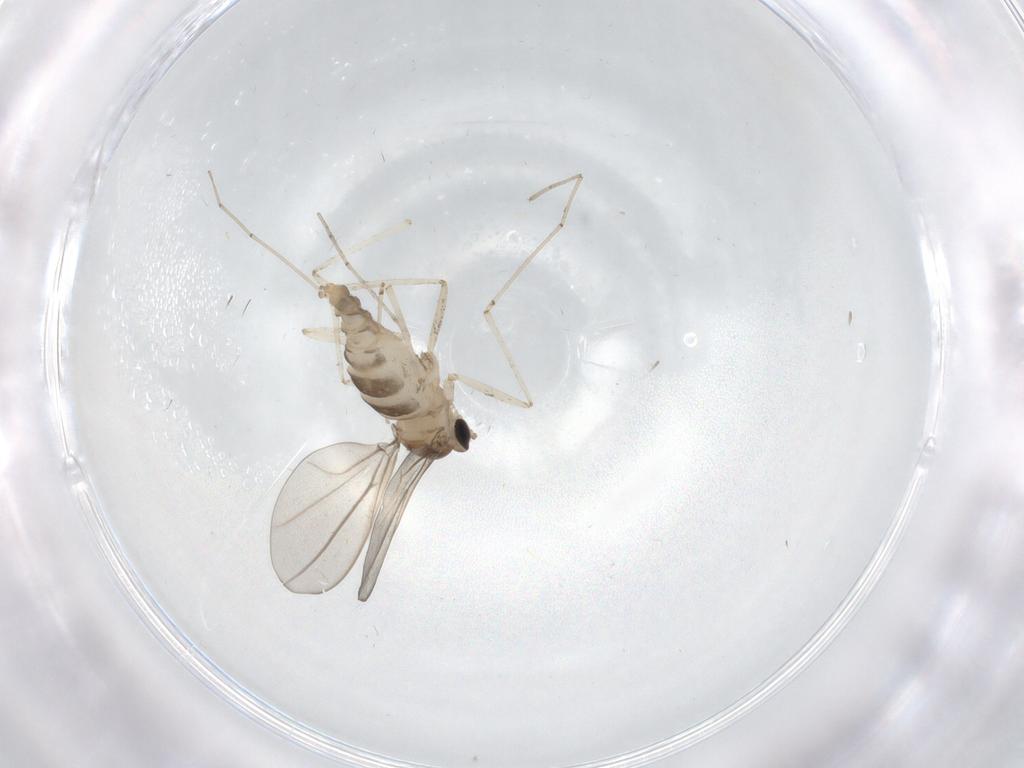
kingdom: Animalia
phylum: Arthropoda
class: Insecta
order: Diptera
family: Cecidomyiidae
